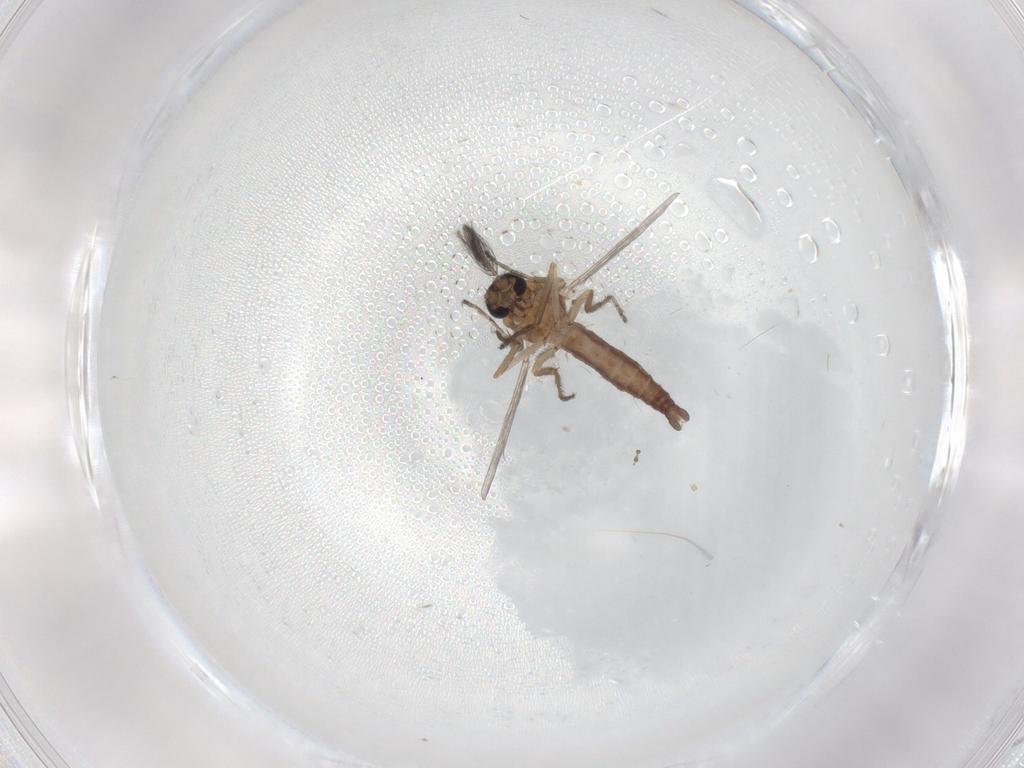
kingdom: Animalia
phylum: Arthropoda
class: Insecta
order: Diptera
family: Ceratopogonidae
